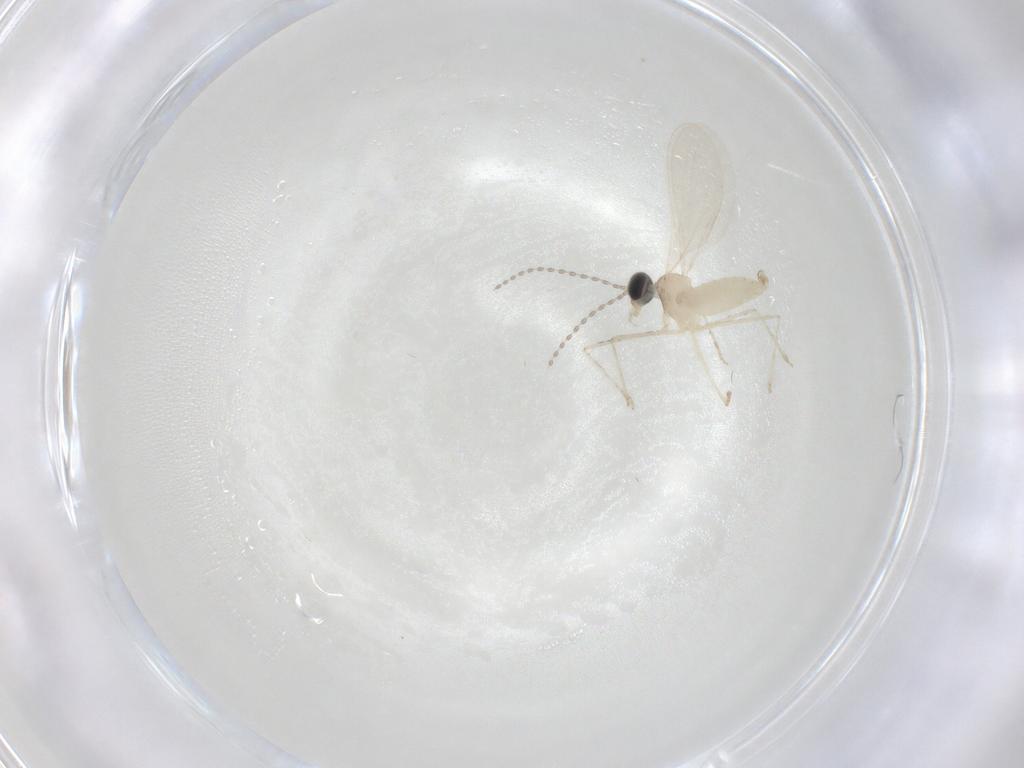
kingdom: Animalia
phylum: Arthropoda
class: Insecta
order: Diptera
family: Cecidomyiidae
